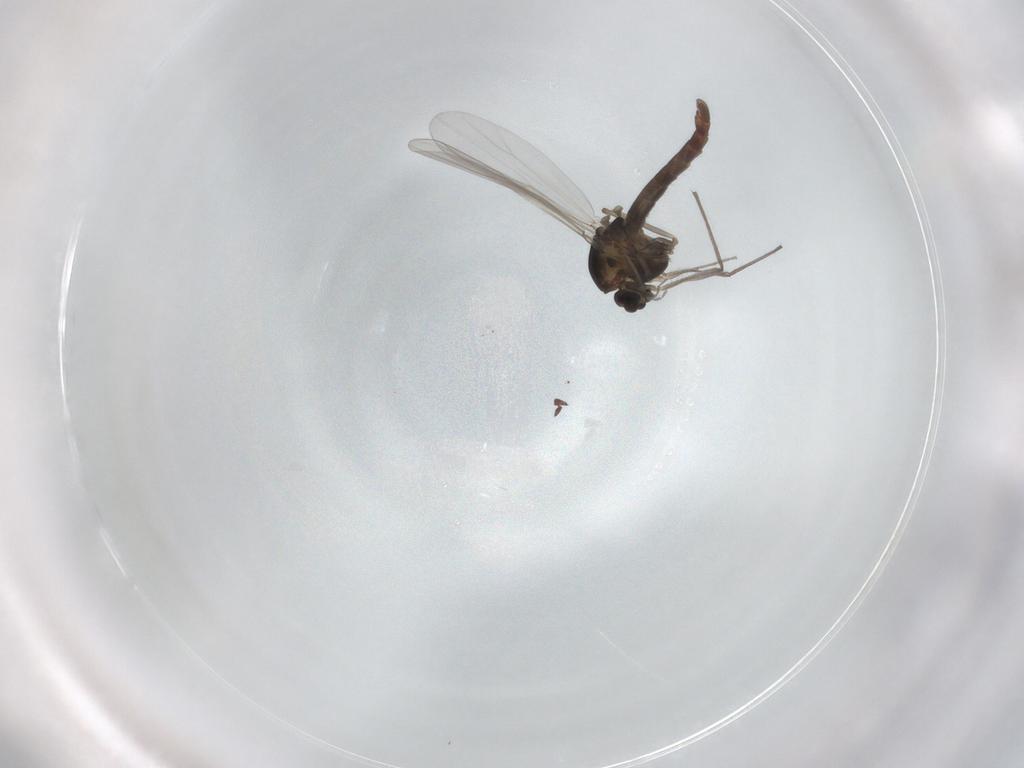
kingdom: Animalia
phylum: Arthropoda
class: Insecta
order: Diptera
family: Chironomidae
